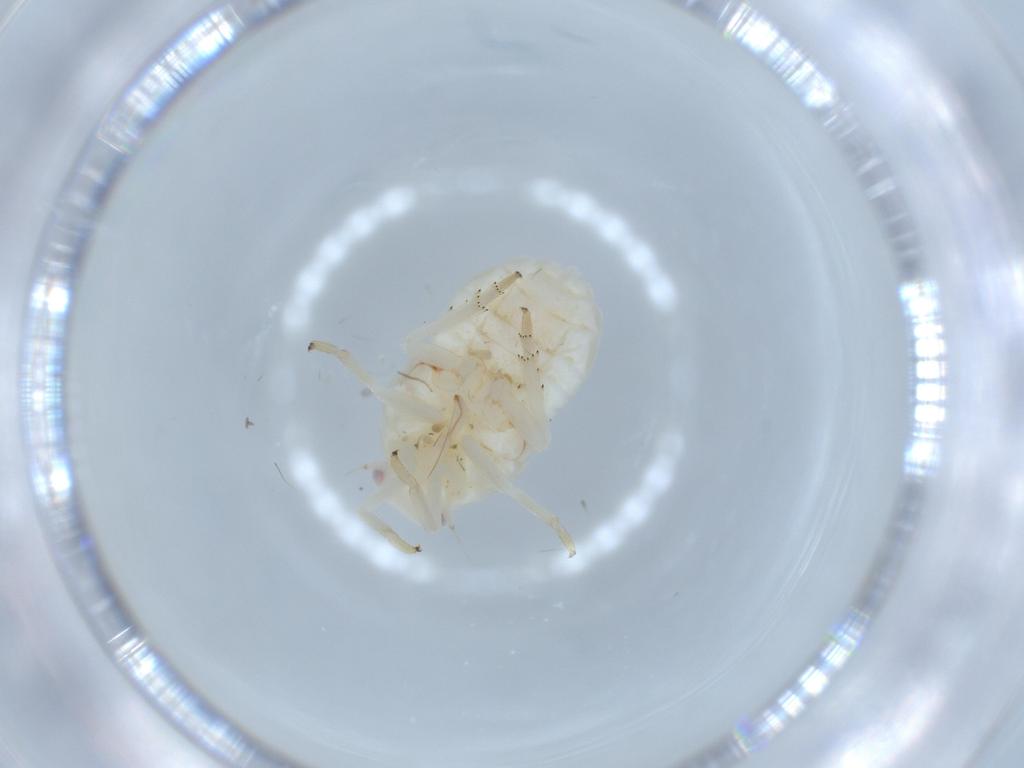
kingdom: Animalia
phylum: Arthropoda
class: Insecta
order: Hemiptera
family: Flatidae
